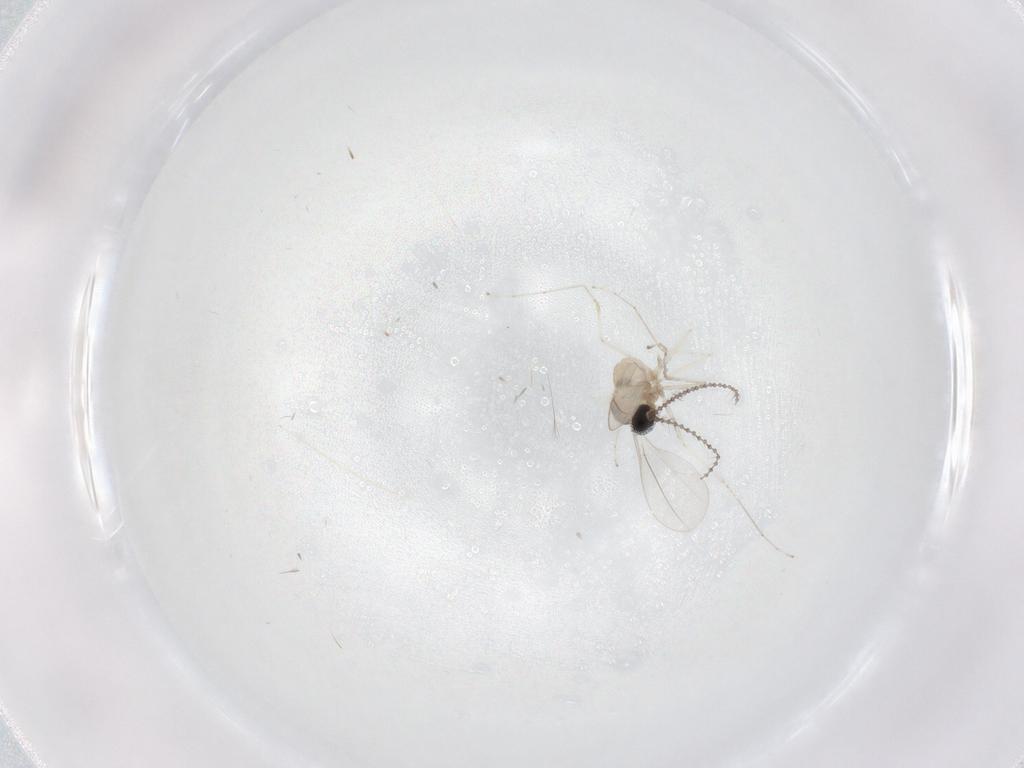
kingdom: Animalia
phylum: Arthropoda
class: Insecta
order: Diptera
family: Cecidomyiidae
